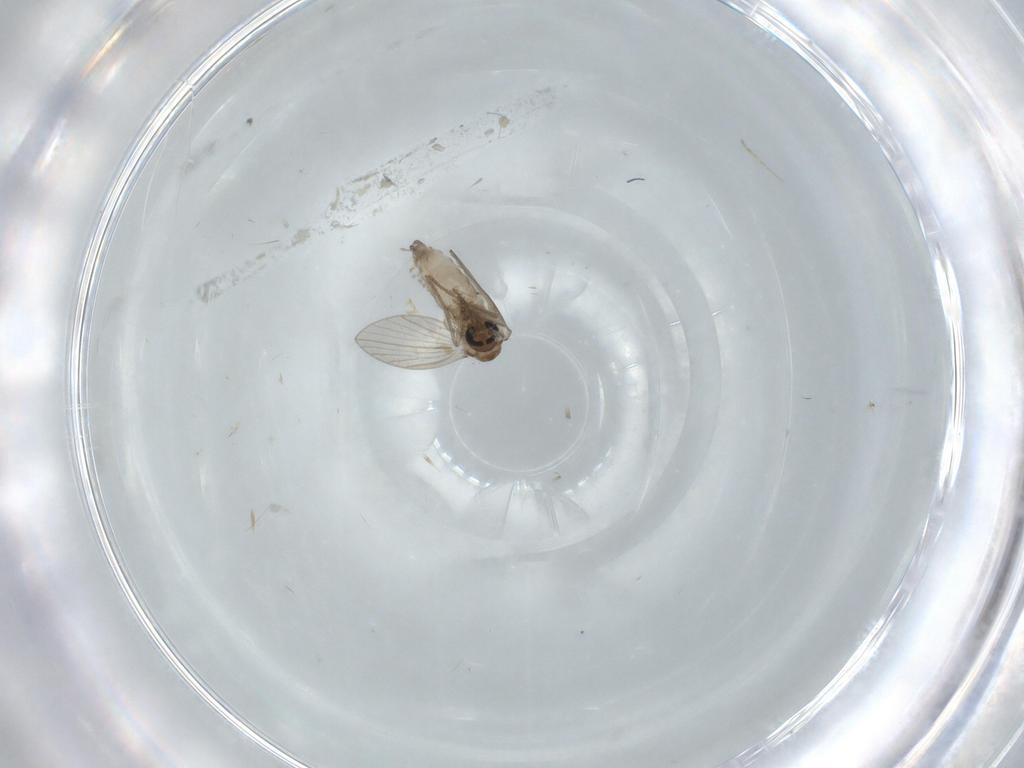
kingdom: Animalia
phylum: Arthropoda
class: Insecta
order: Diptera
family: Psychodidae
